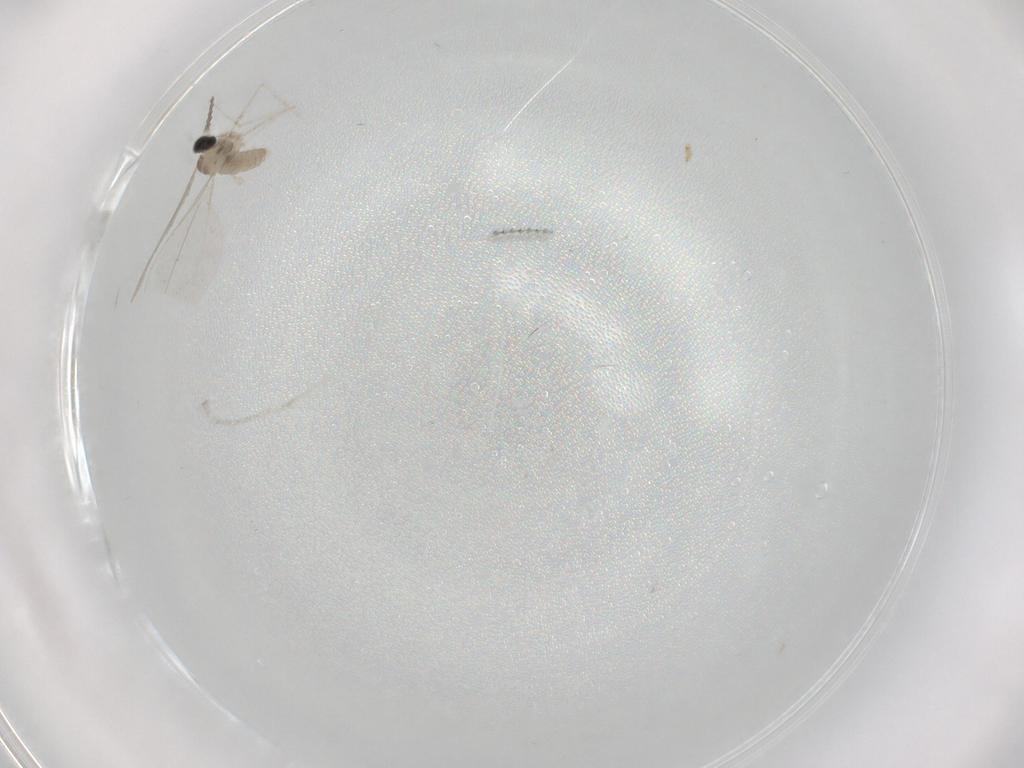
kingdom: Animalia
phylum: Arthropoda
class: Insecta
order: Diptera
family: Cecidomyiidae
